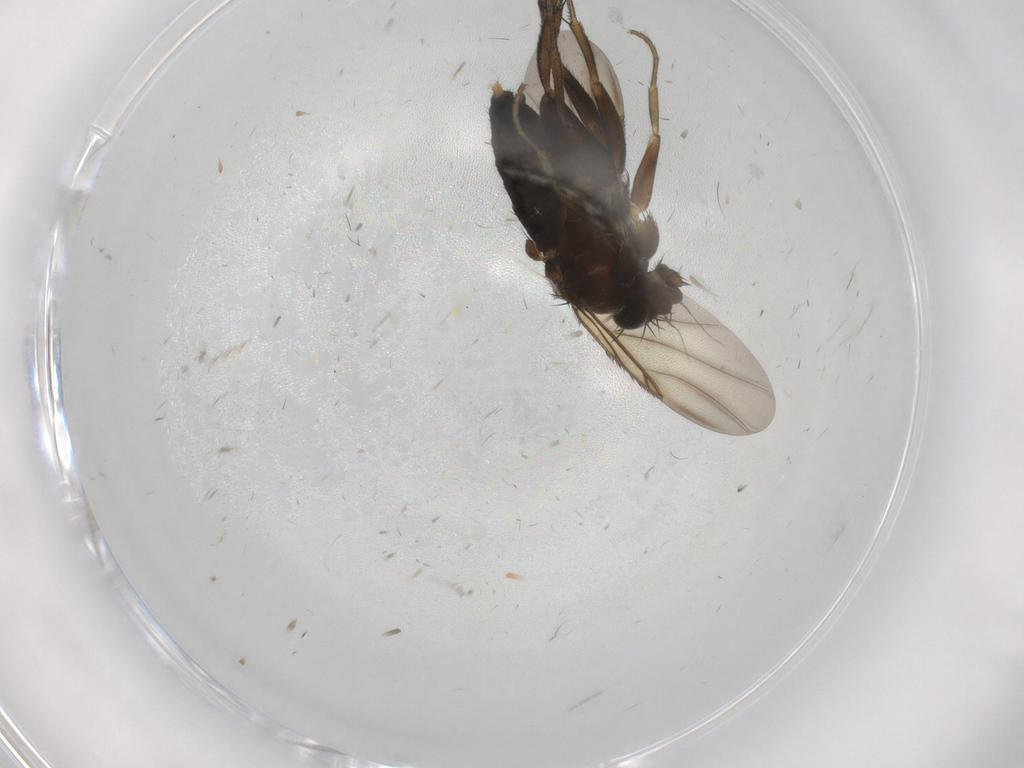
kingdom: Animalia
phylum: Arthropoda
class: Insecta
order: Diptera
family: Phoridae
